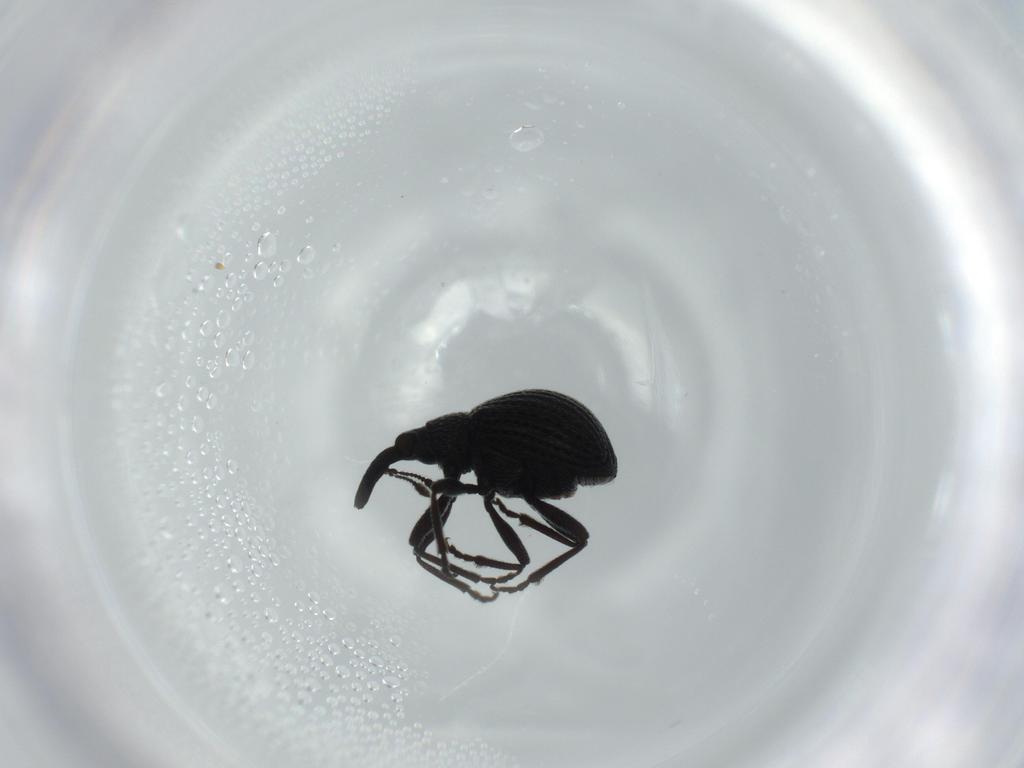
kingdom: Animalia
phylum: Arthropoda
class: Insecta
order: Coleoptera
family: Brentidae
